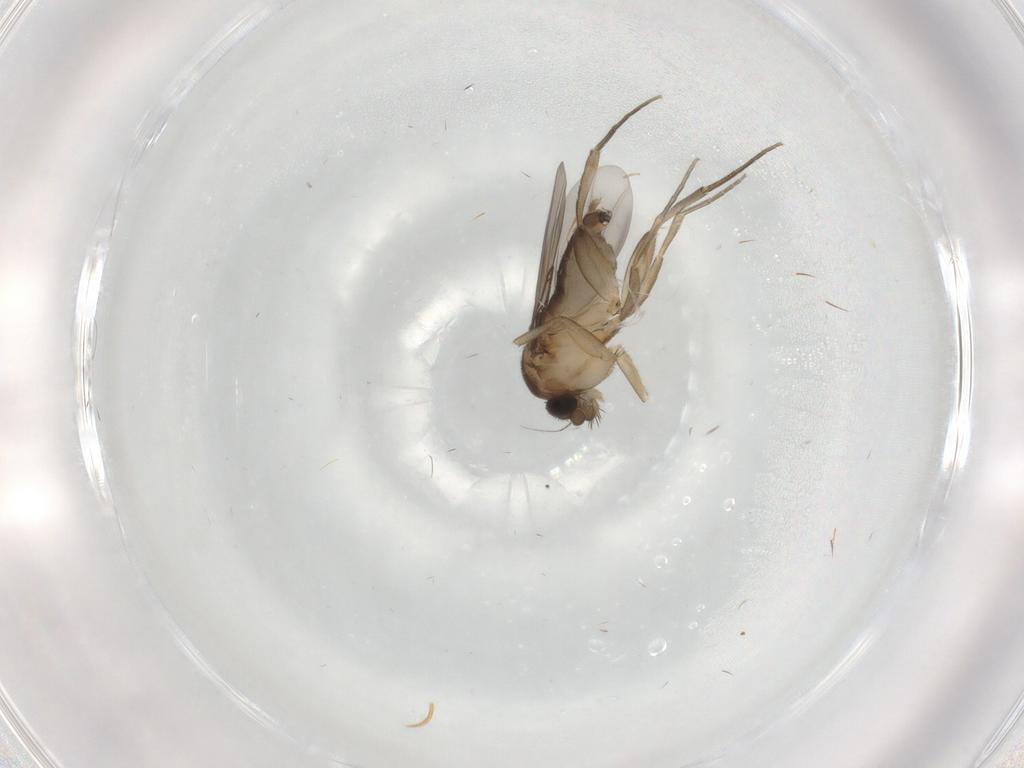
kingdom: Animalia
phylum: Arthropoda
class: Insecta
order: Diptera
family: Phoridae
